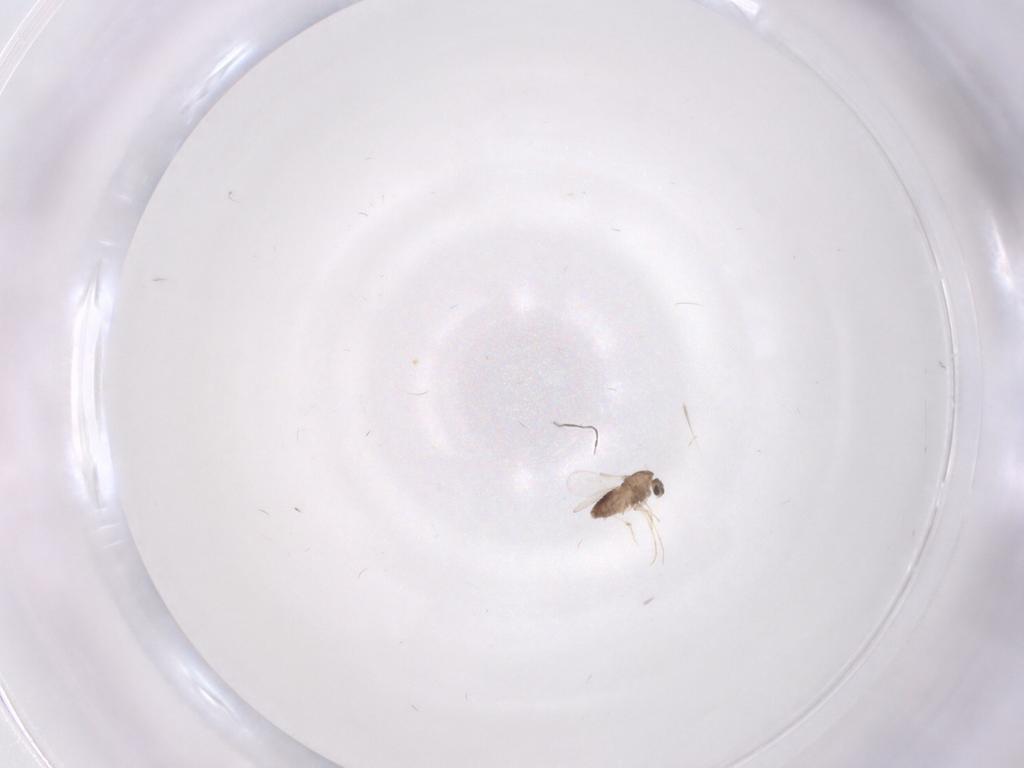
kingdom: Animalia
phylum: Arthropoda
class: Insecta
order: Diptera
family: Chironomidae
